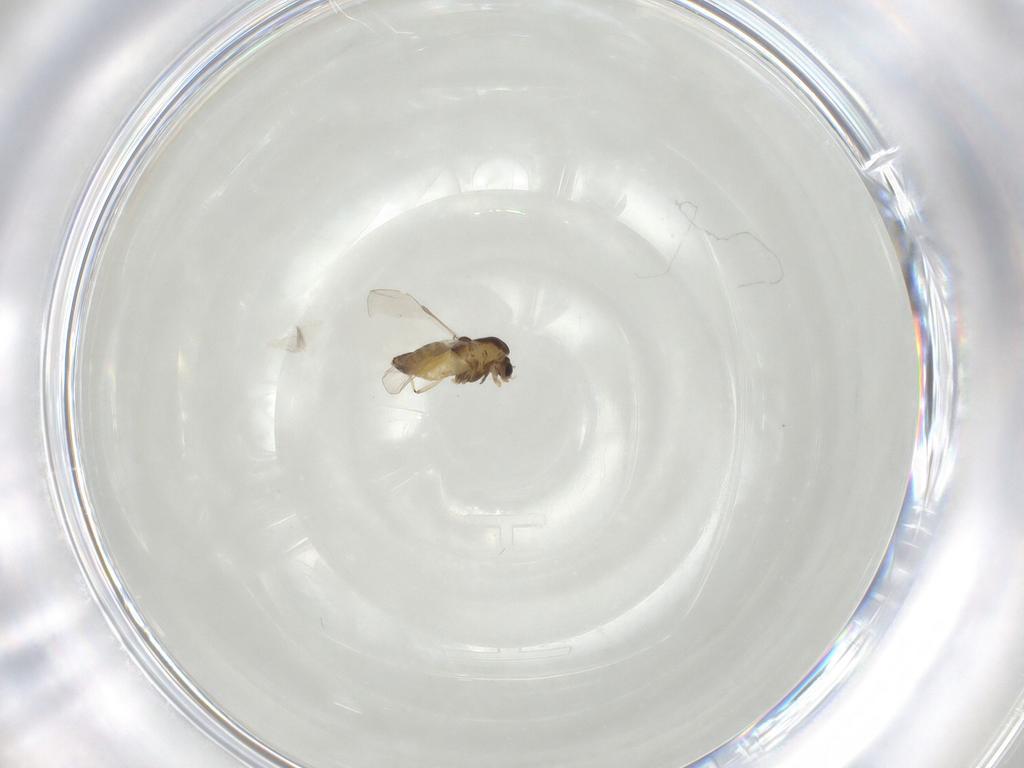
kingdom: Animalia
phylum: Arthropoda
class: Insecta
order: Diptera
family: Chironomidae
